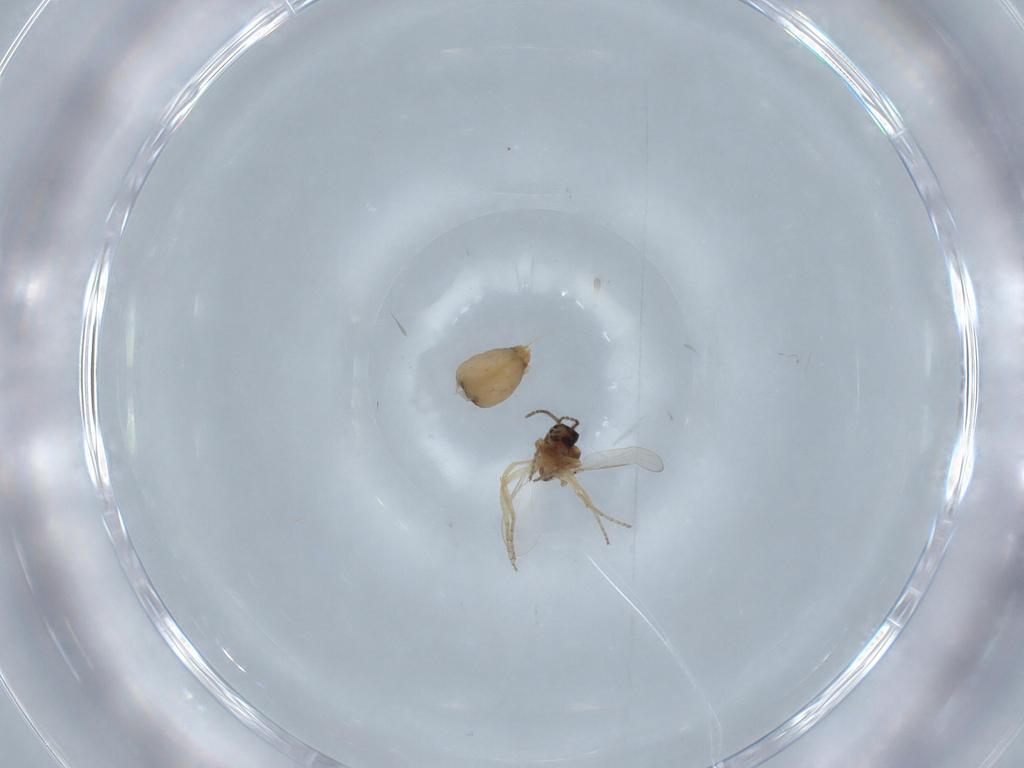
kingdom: Animalia
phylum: Arthropoda
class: Insecta
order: Diptera
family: Ceratopogonidae
